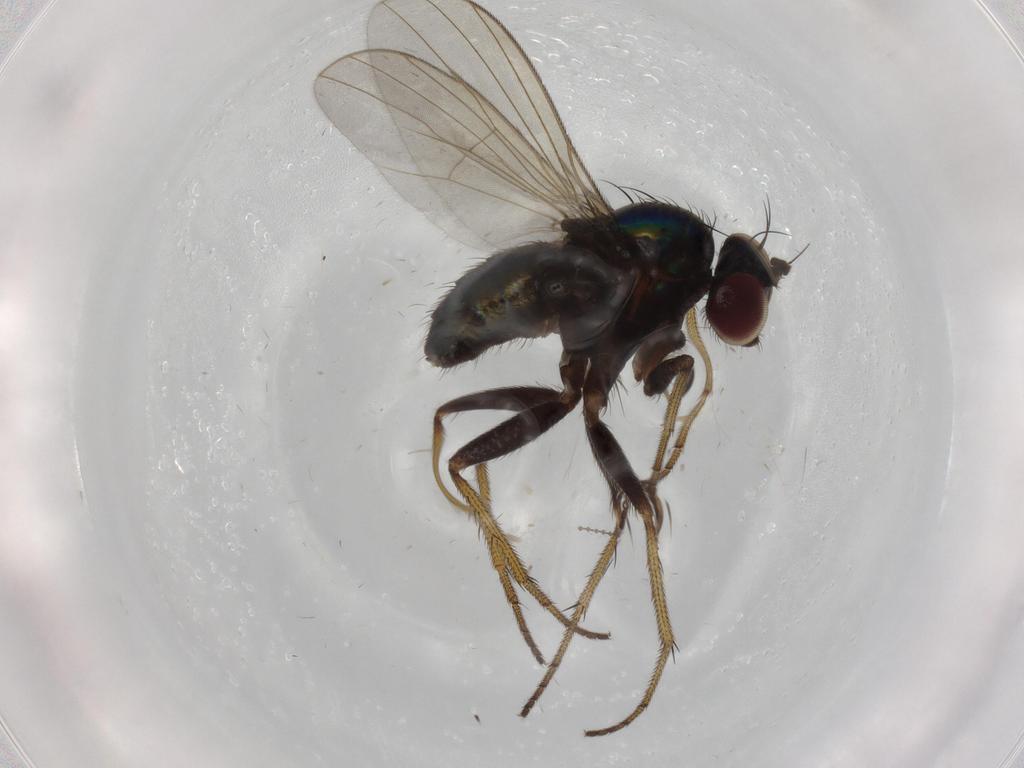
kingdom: Animalia
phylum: Arthropoda
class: Insecta
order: Diptera
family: Dolichopodidae
